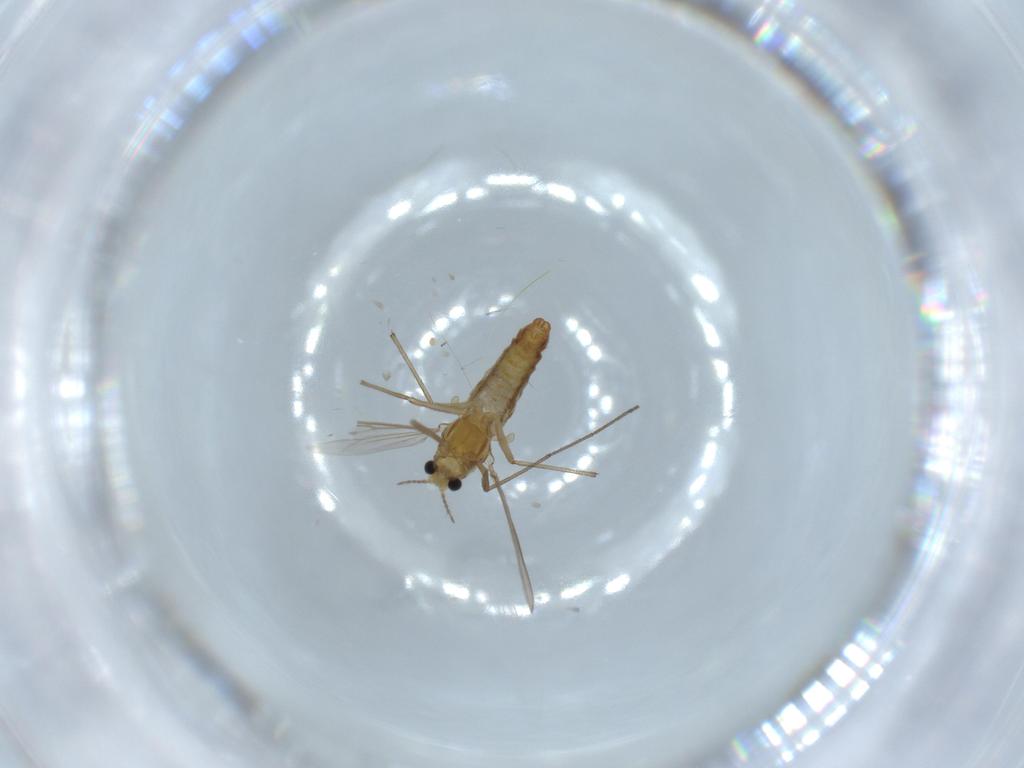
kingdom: Animalia
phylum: Arthropoda
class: Insecta
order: Diptera
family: Chironomidae
